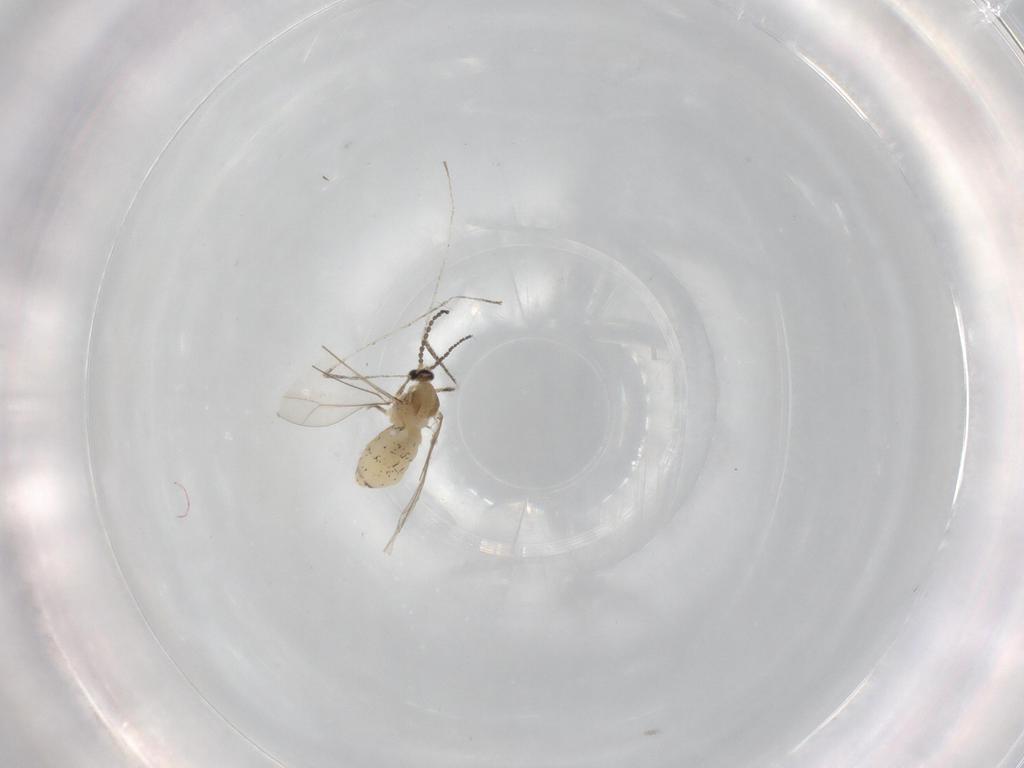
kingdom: Animalia
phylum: Arthropoda
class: Insecta
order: Diptera
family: Cecidomyiidae
